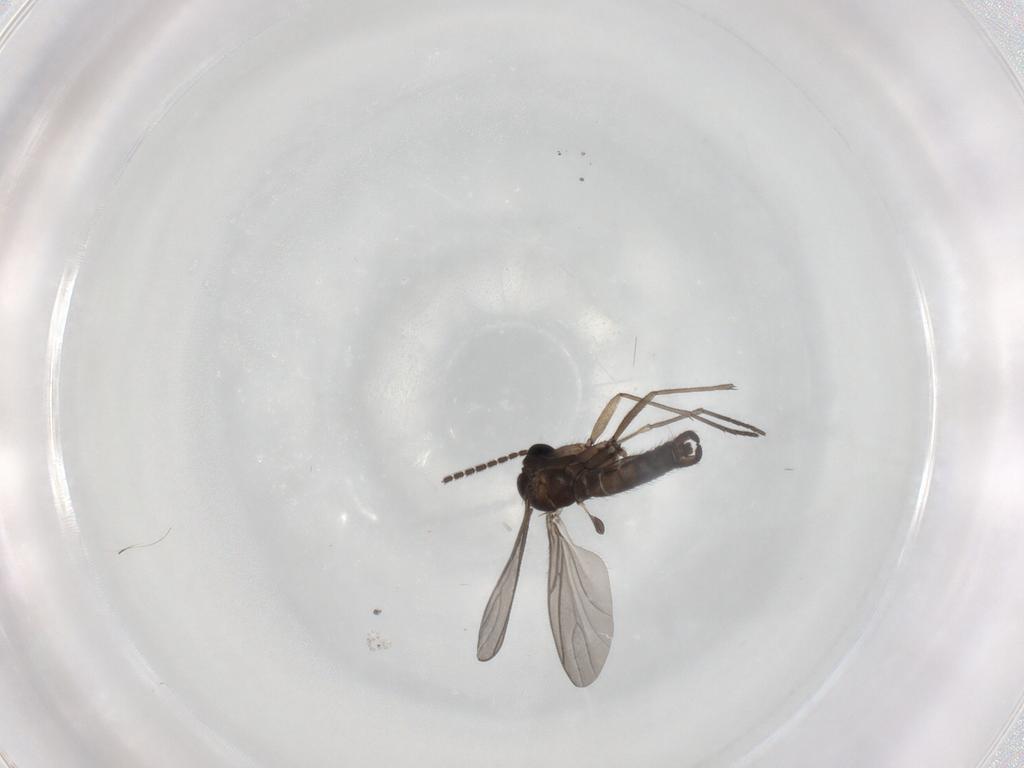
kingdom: Animalia
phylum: Arthropoda
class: Insecta
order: Diptera
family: Sciaridae
